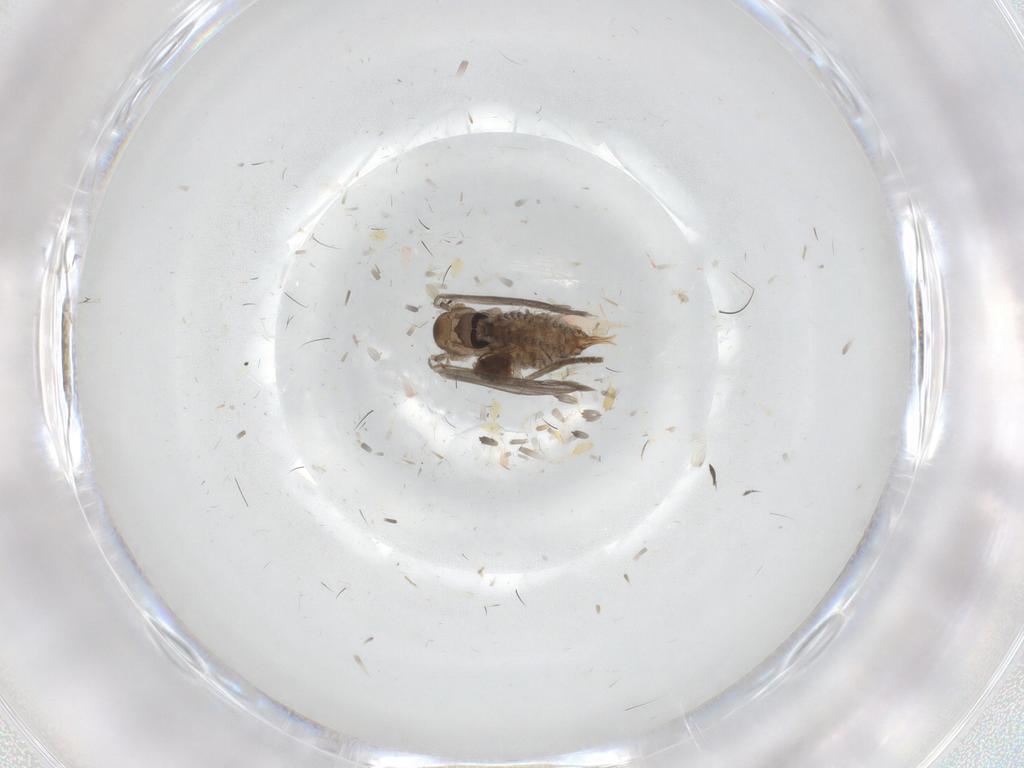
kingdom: Animalia
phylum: Arthropoda
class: Insecta
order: Diptera
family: Psychodidae
